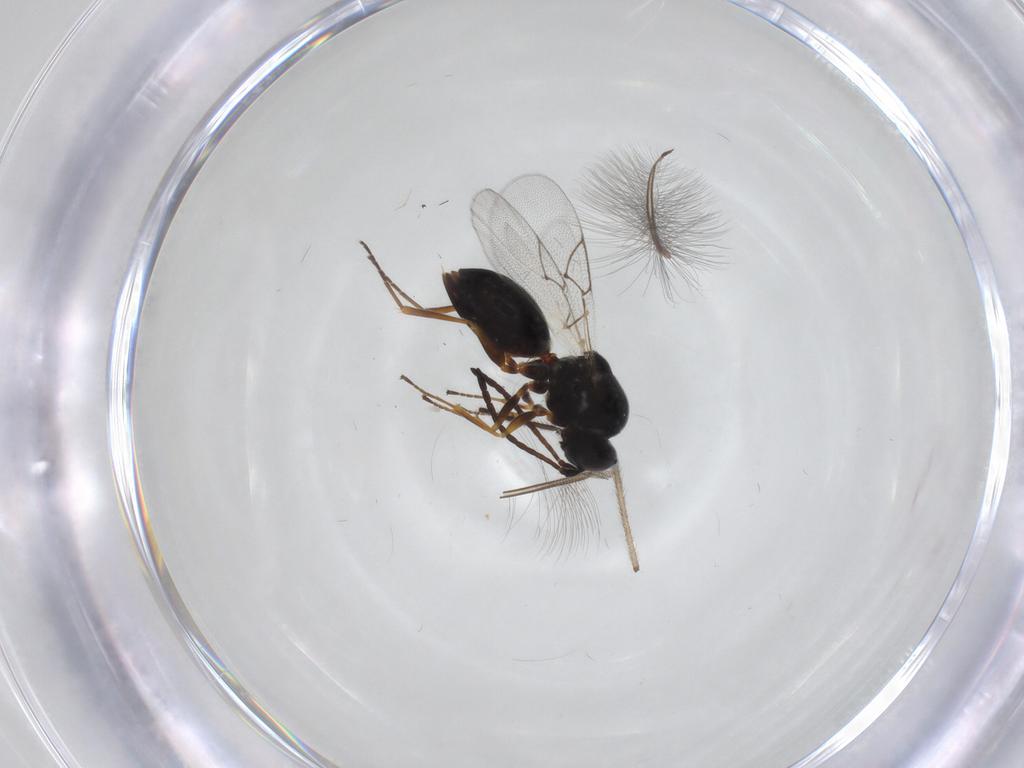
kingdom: Animalia
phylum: Arthropoda
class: Insecta
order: Hymenoptera
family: Figitidae
